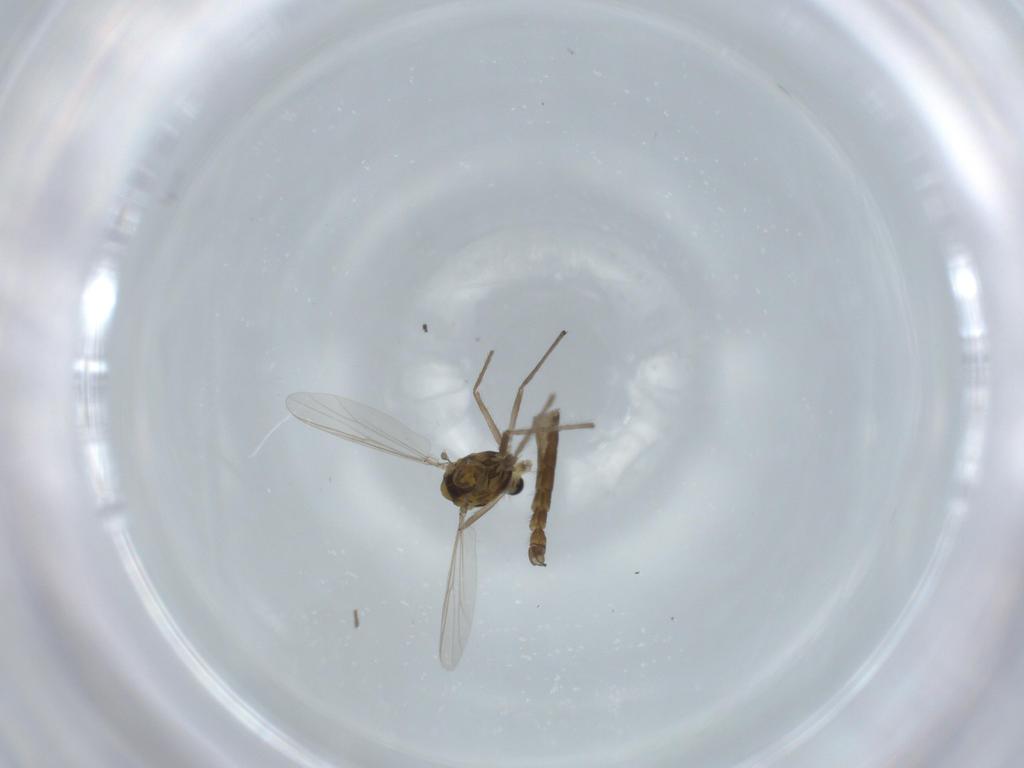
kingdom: Animalia
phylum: Arthropoda
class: Insecta
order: Diptera
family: Chironomidae
